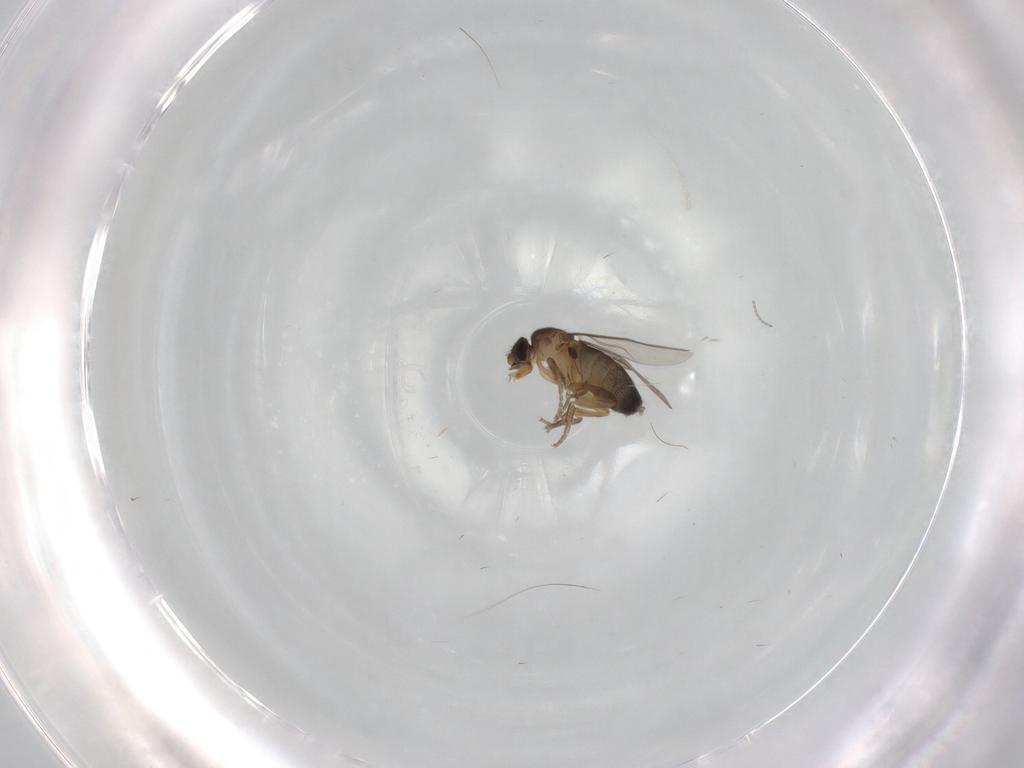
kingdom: Animalia
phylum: Arthropoda
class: Insecta
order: Diptera
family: Phoridae
